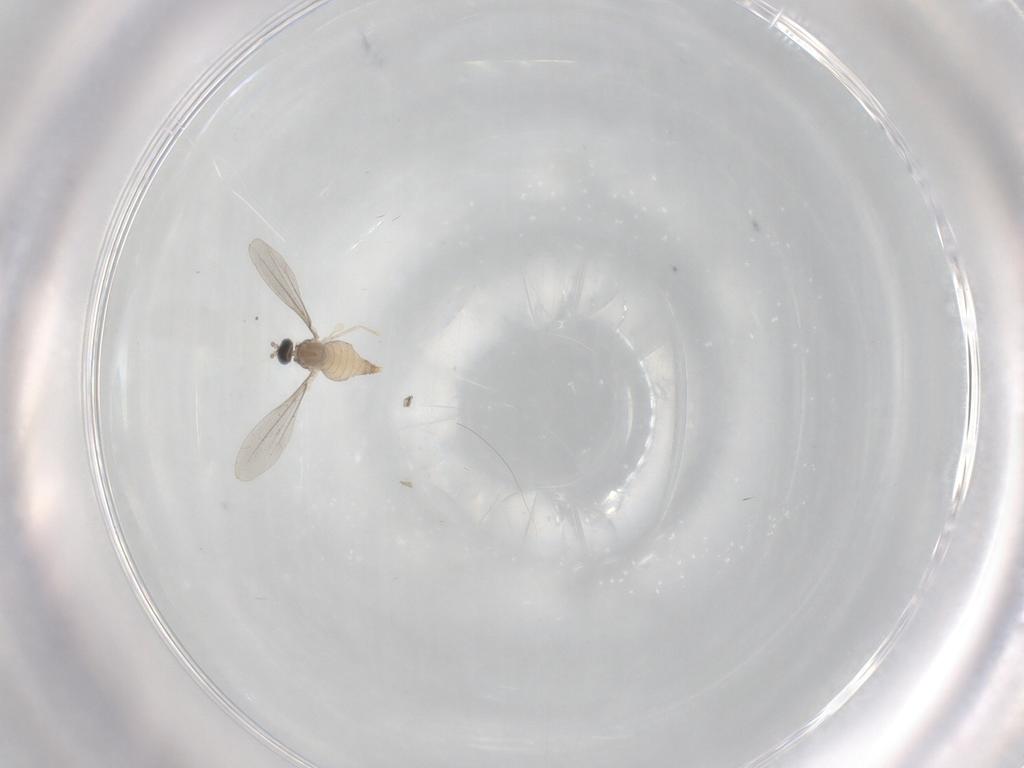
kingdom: Animalia
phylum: Arthropoda
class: Insecta
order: Diptera
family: Cecidomyiidae
